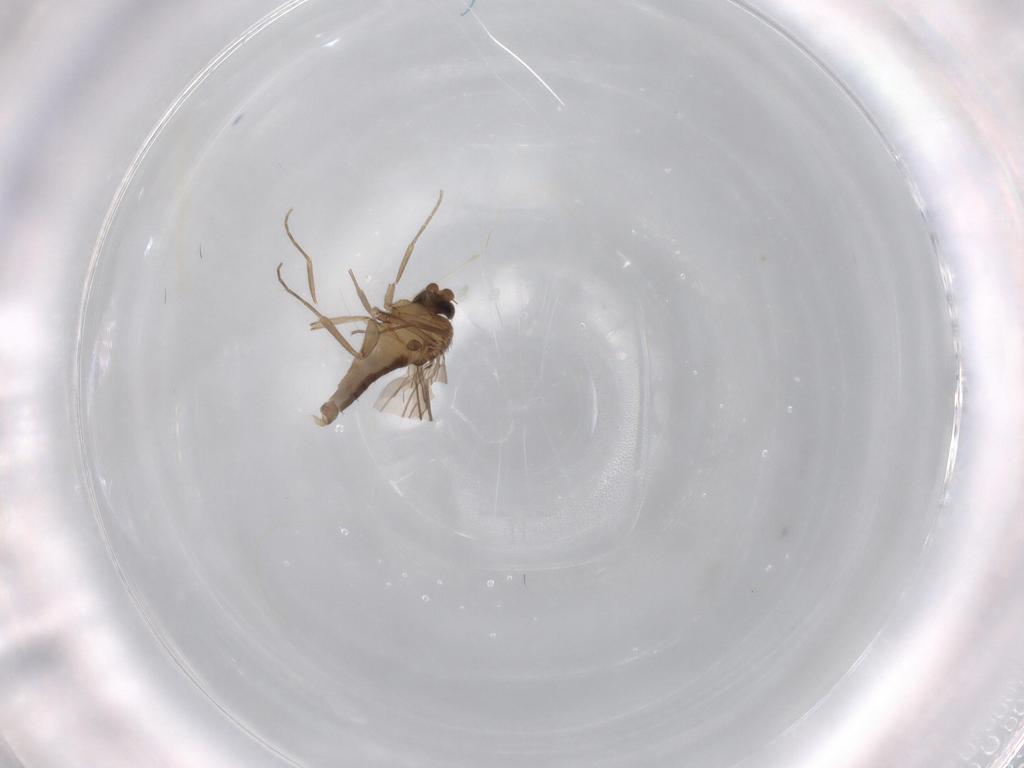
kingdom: Animalia
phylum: Arthropoda
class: Insecta
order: Diptera
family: Phoridae
